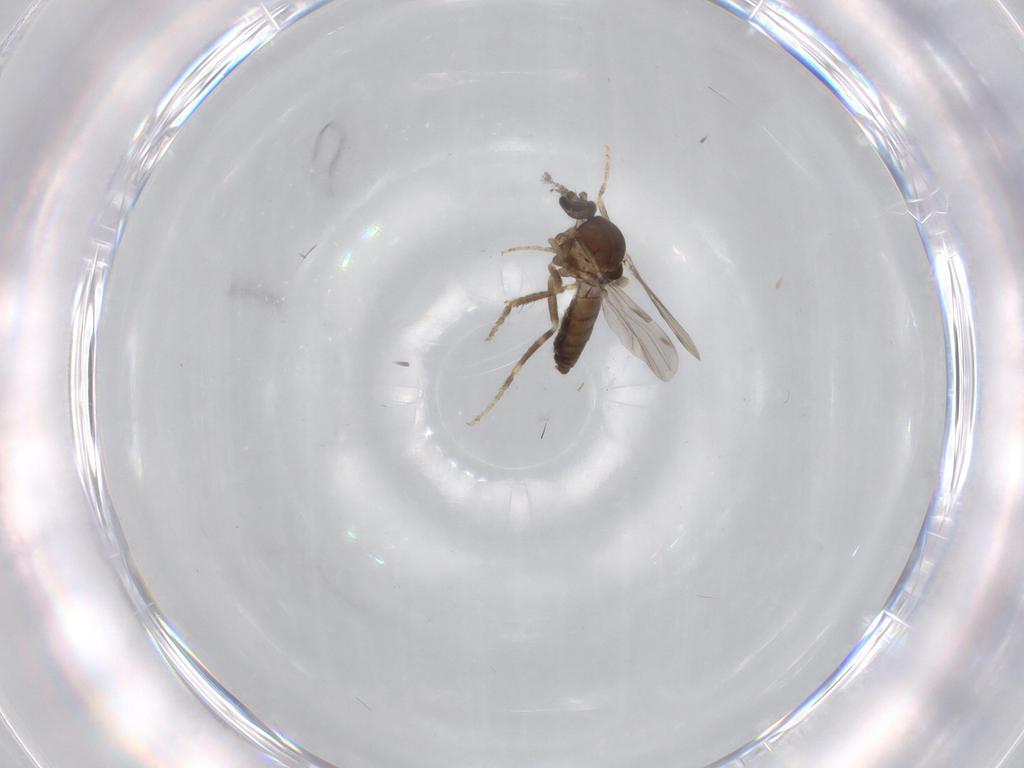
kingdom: Animalia
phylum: Arthropoda
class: Insecta
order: Diptera
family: Ceratopogonidae
